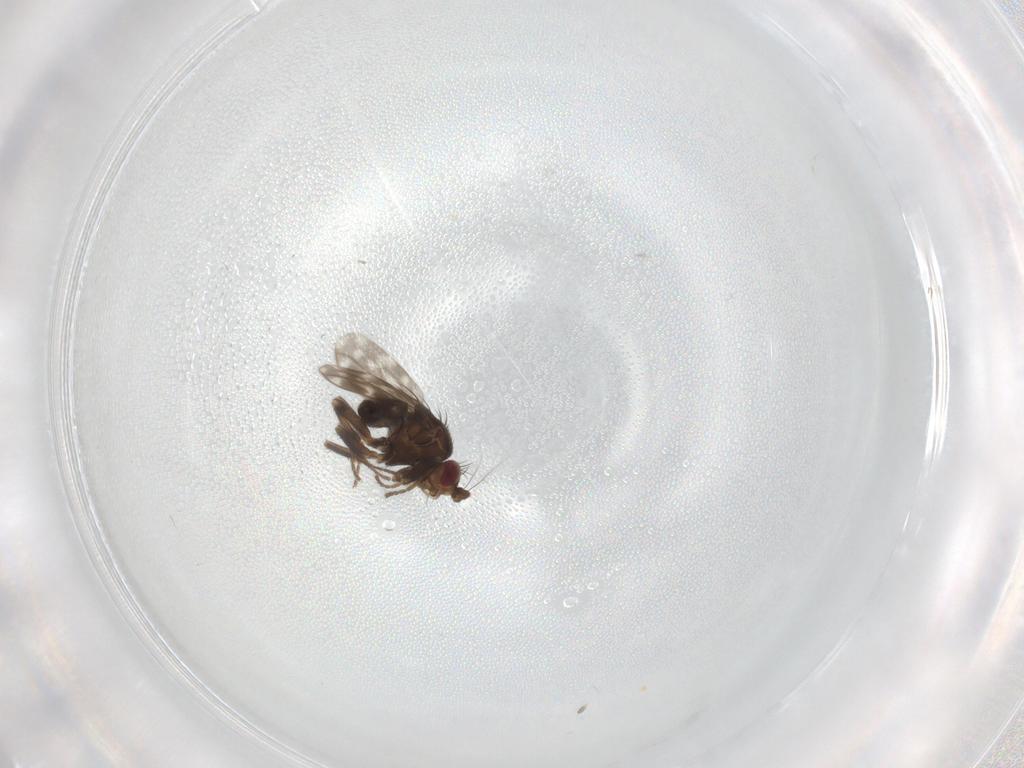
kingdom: Animalia
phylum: Arthropoda
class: Insecta
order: Diptera
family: Sphaeroceridae
